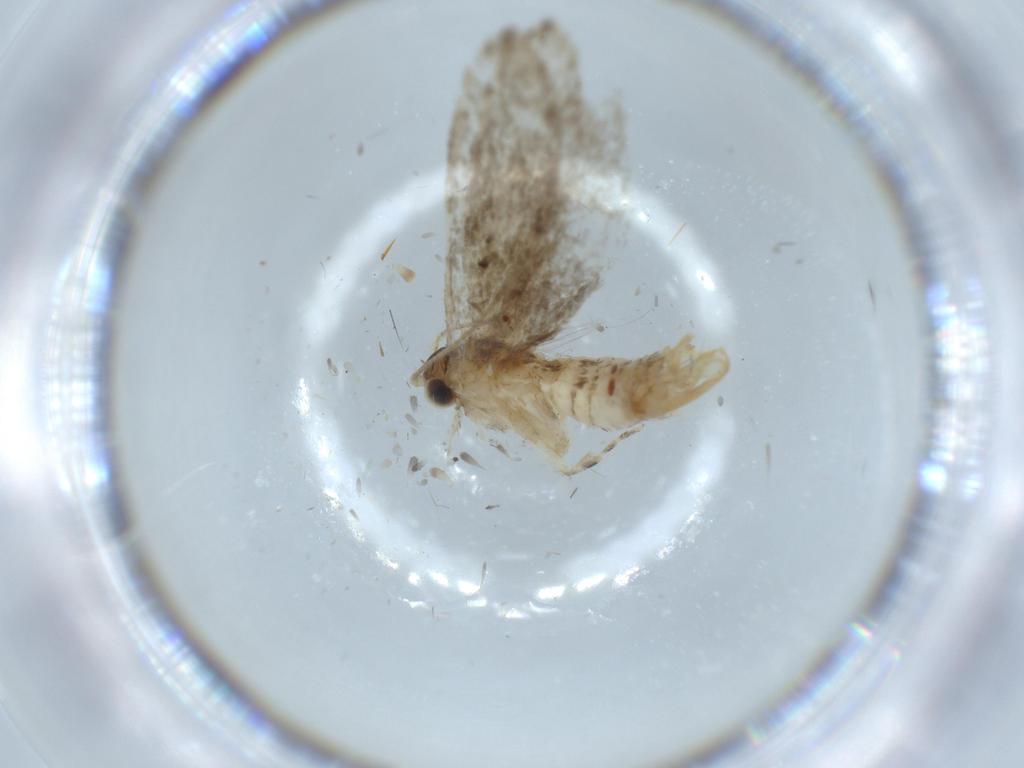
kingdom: Animalia
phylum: Arthropoda
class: Insecta
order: Lepidoptera
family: Tineidae
